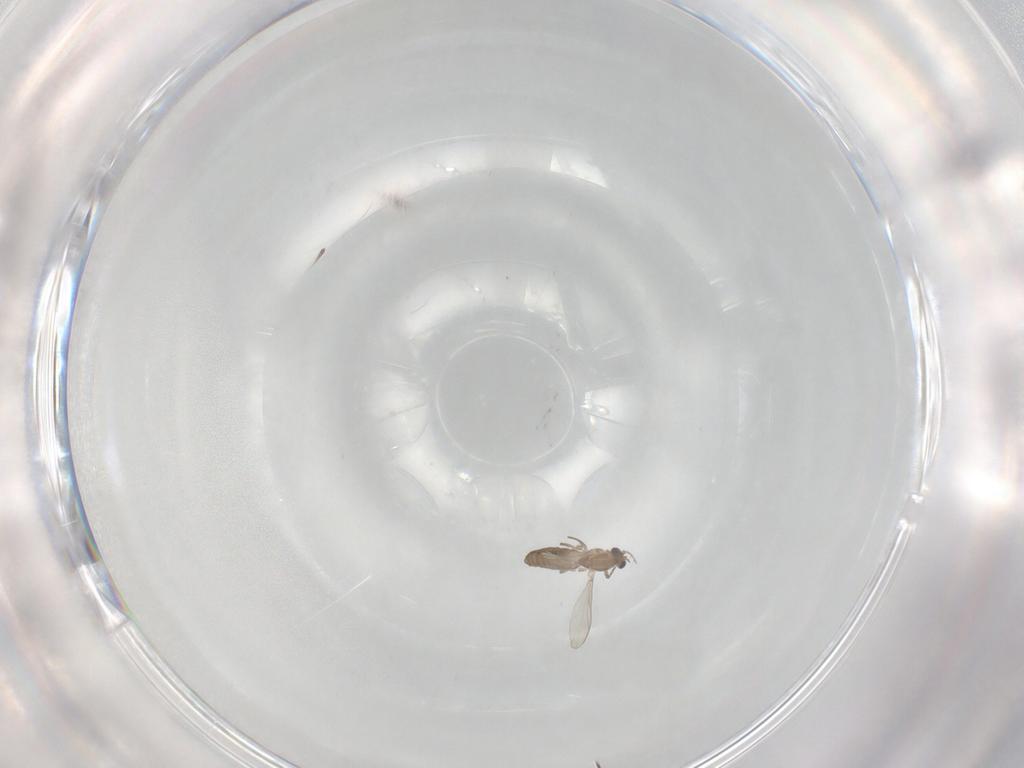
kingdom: Animalia
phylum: Arthropoda
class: Insecta
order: Diptera
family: Chironomidae
